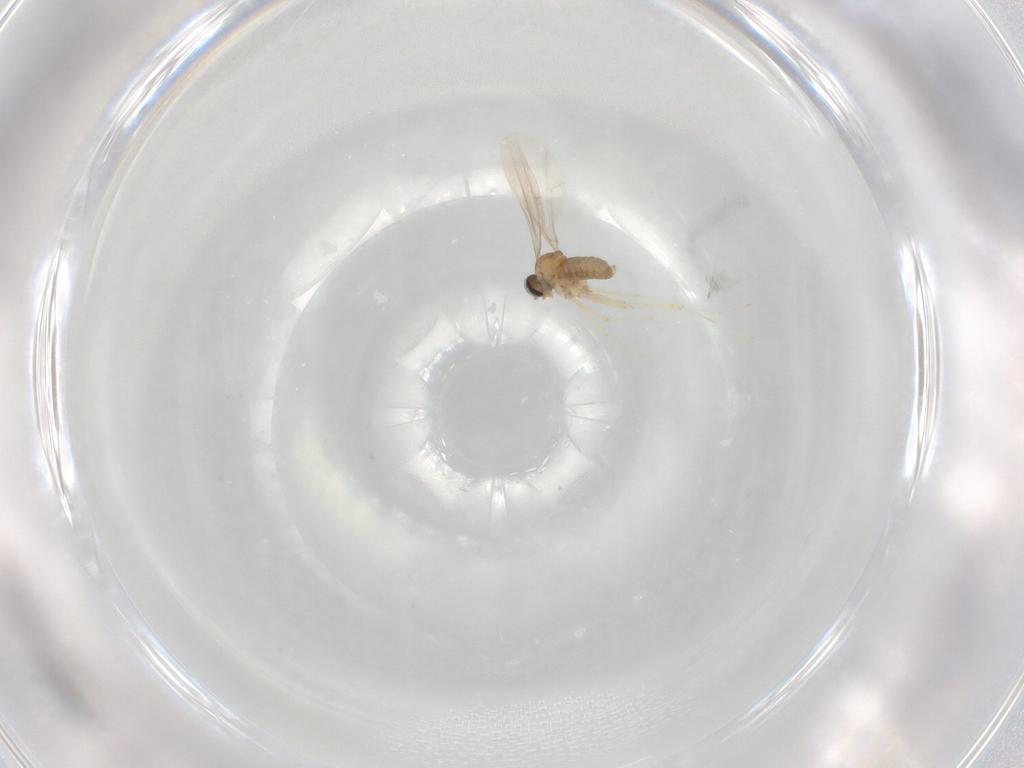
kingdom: Animalia
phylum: Arthropoda
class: Insecta
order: Diptera
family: Cecidomyiidae
